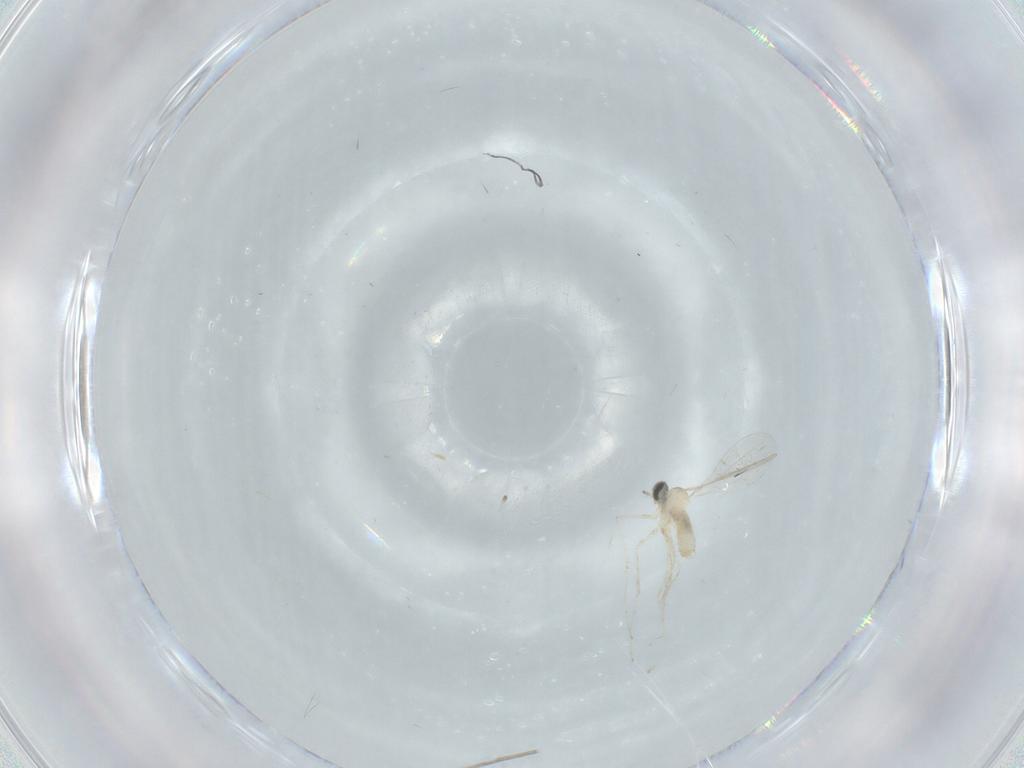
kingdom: Animalia
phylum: Arthropoda
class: Insecta
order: Diptera
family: Cecidomyiidae
